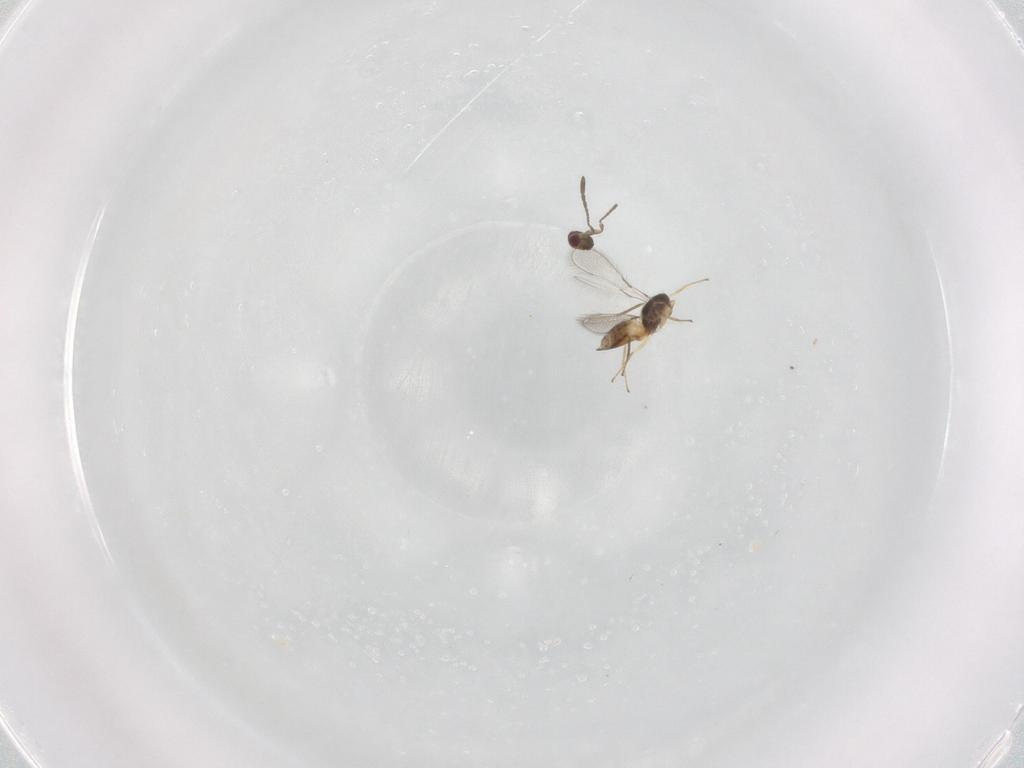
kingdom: Animalia
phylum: Arthropoda
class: Insecta
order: Hymenoptera
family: Mymaridae
